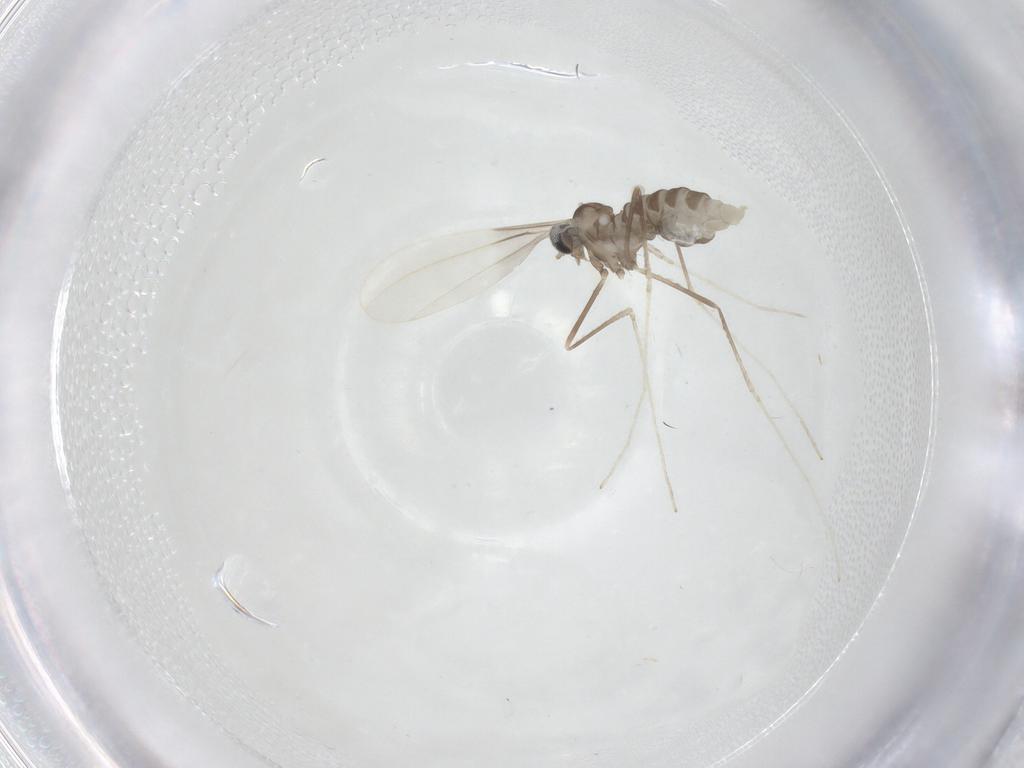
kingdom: Animalia
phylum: Arthropoda
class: Insecta
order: Diptera
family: Cecidomyiidae
